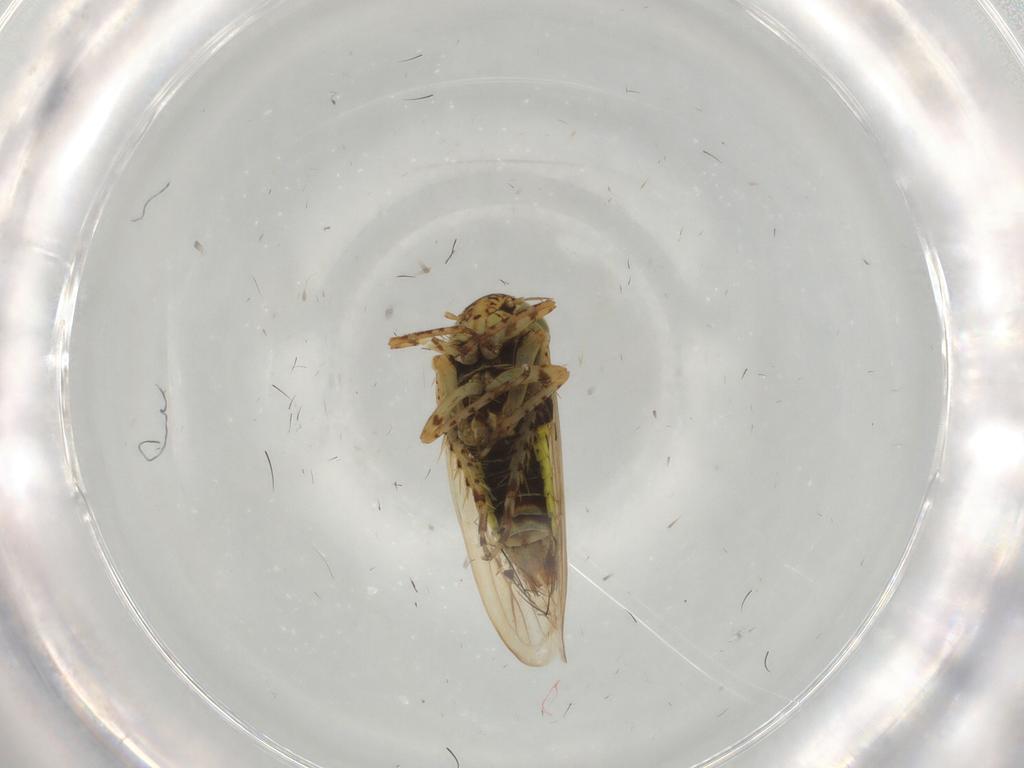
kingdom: Animalia
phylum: Arthropoda
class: Insecta
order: Hemiptera
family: Cicadellidae
